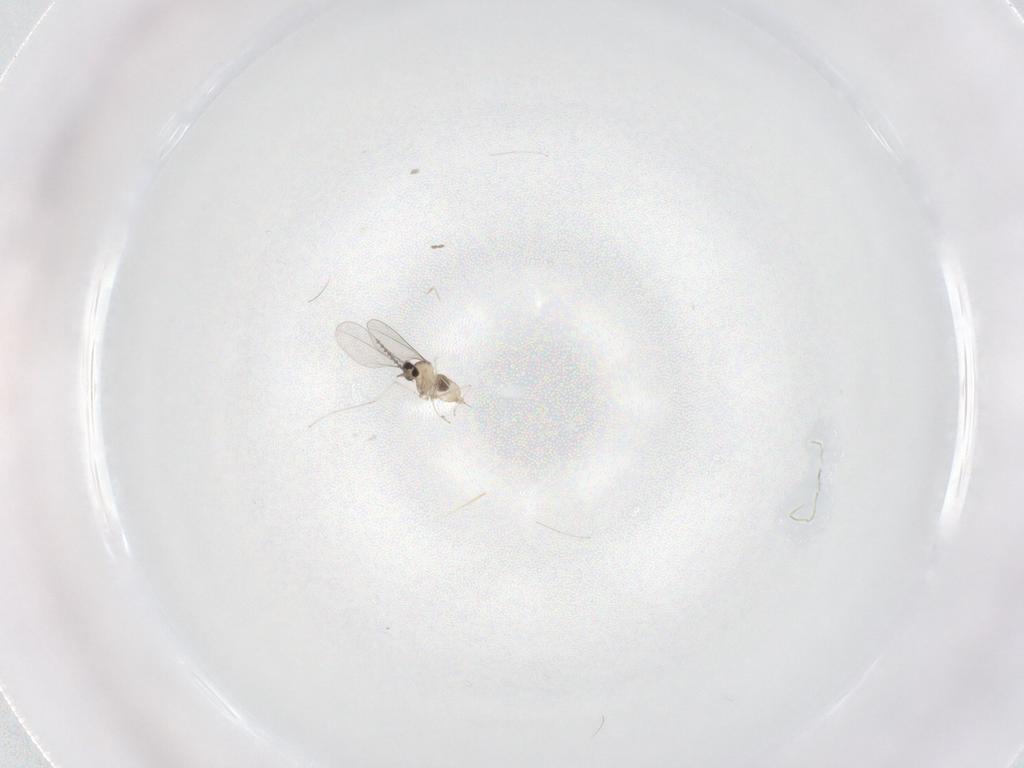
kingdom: Animalia
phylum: Arthropoda
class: Insecta
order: Diptera
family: Cecidomyiidae
